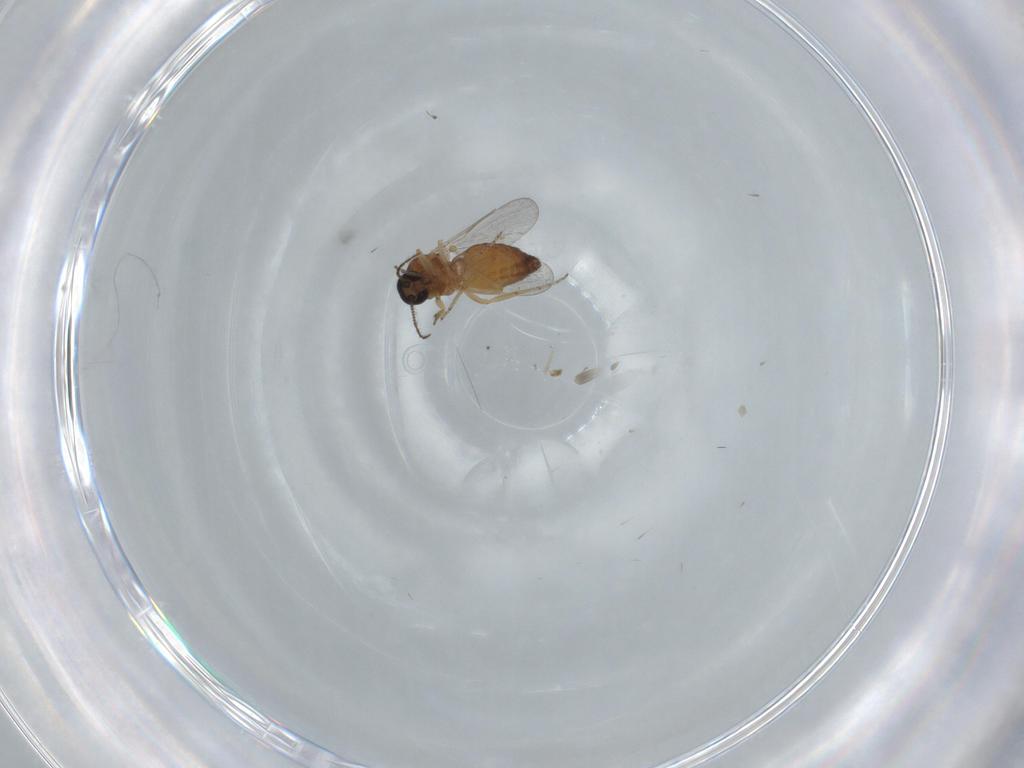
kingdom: Animalia
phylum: Arthropoda
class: Insecta
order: Diptera
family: Ceratopogonidae
